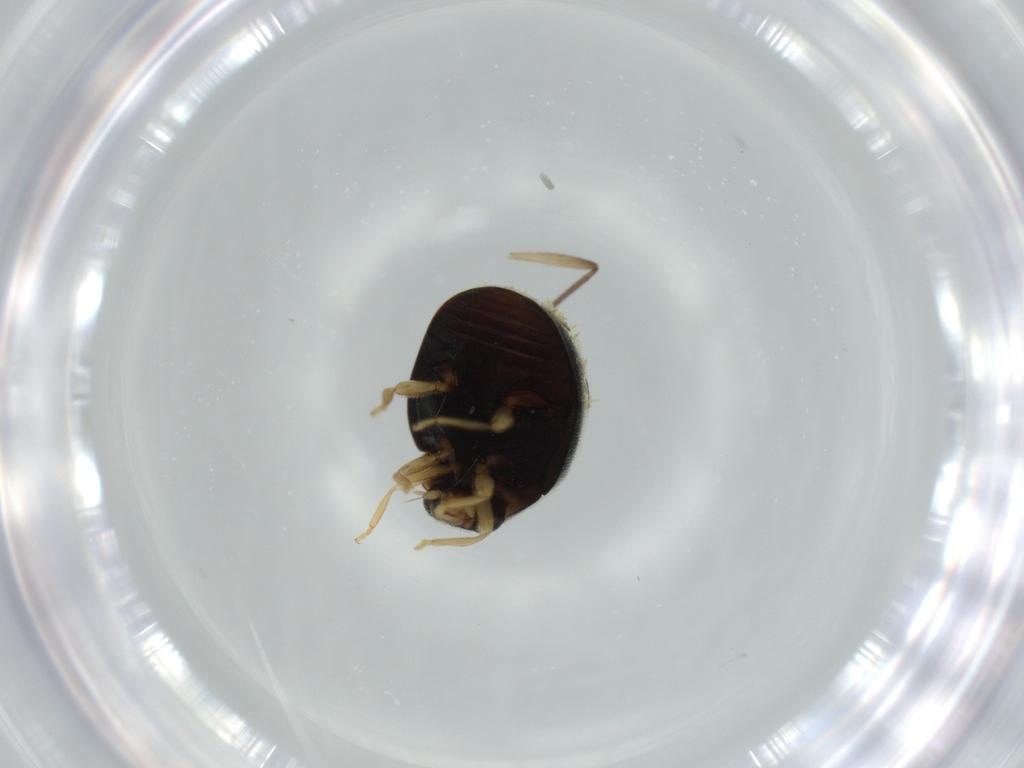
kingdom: Animalia
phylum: Arthropoda
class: Insecta
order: Coleoptera
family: Coccinellidae
